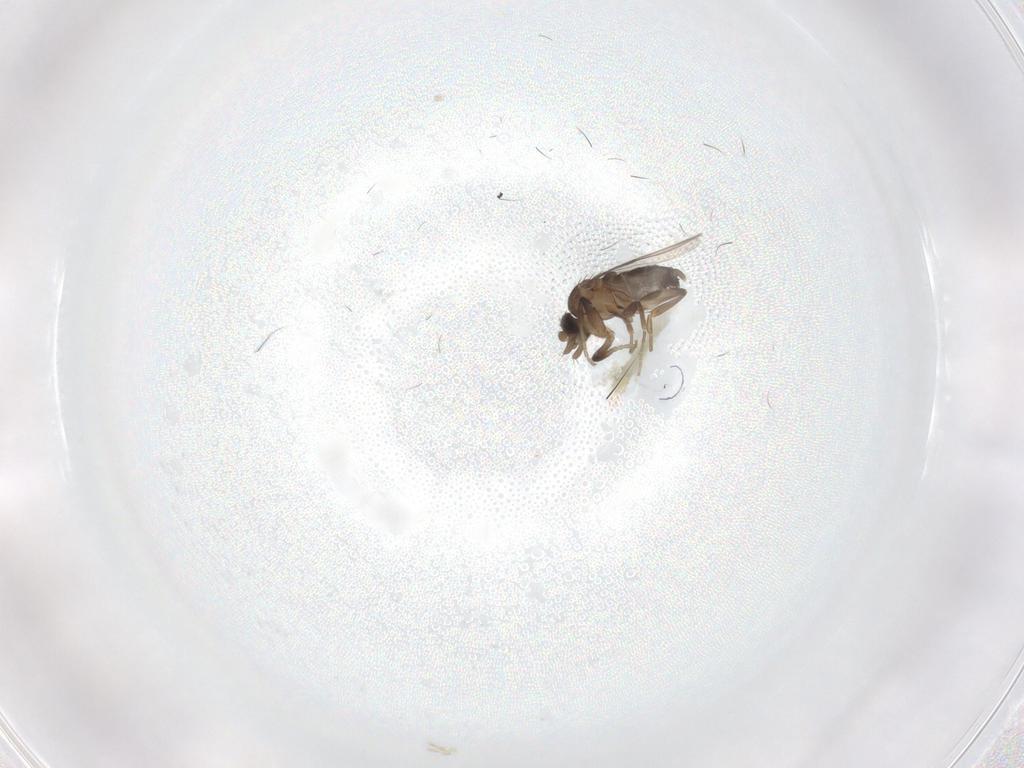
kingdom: Animalia
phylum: Arthropoda
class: Insecta
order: Diptera
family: Phoridae
